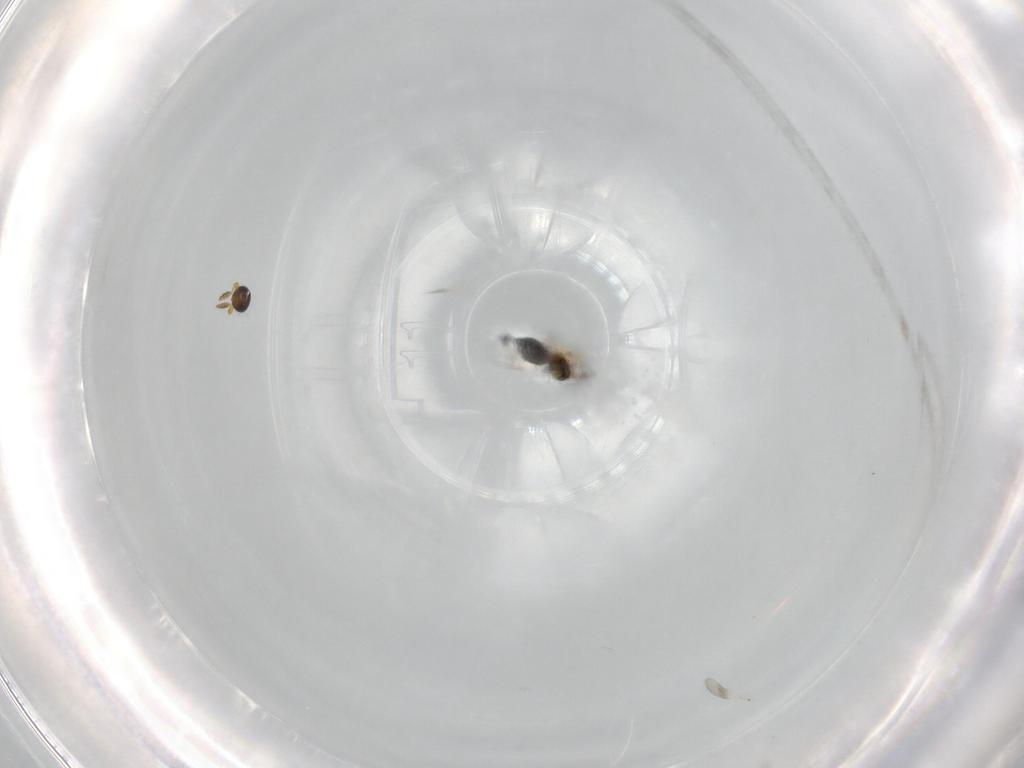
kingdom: Animalia
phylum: Arthropoda
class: Insecta
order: Hymenoptera
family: Platygastridae
